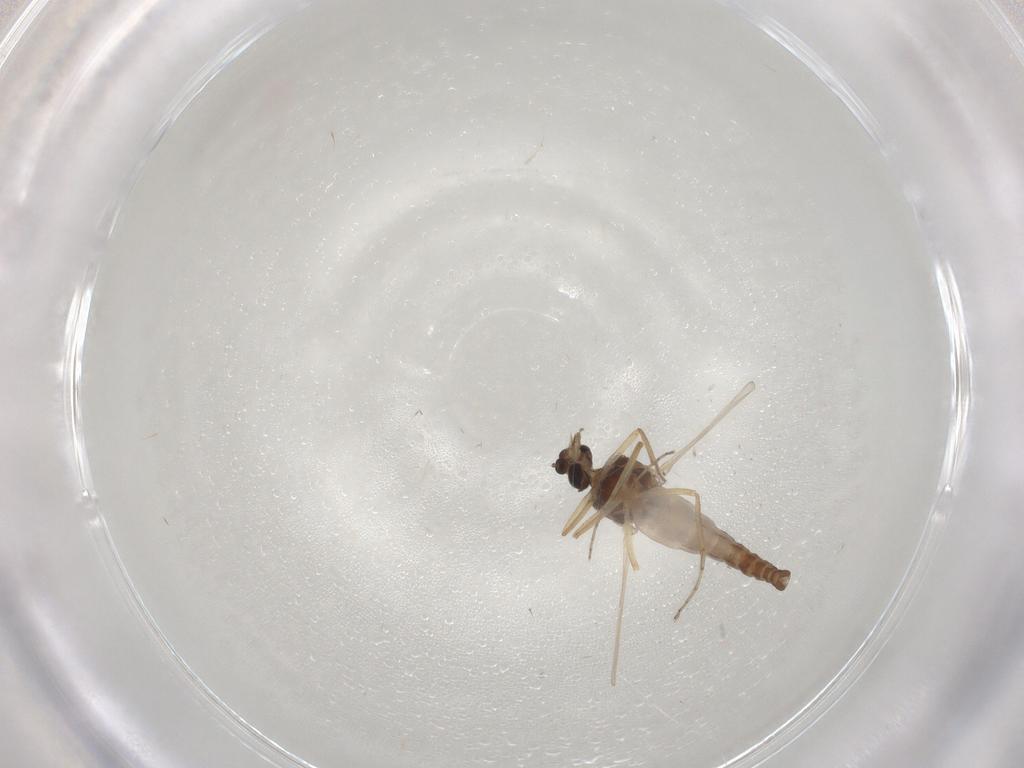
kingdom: Animalia
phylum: Arthropoda
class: Insecta
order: Diptera
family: Ceratopogonidae
